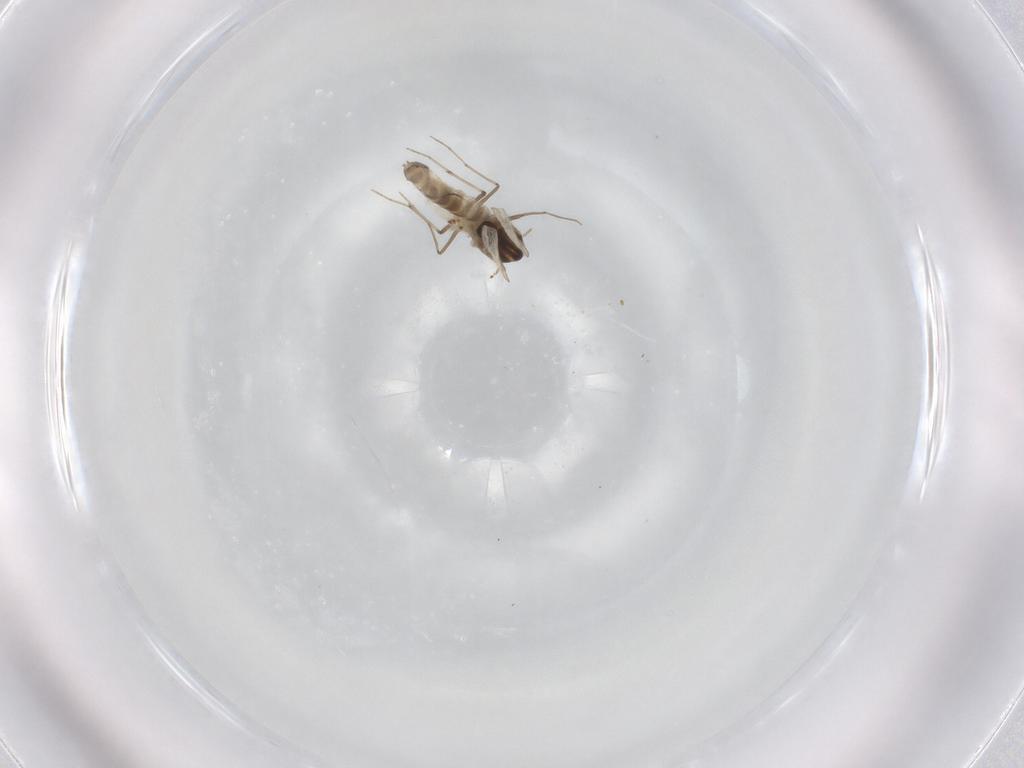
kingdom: Animalia
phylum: Arthropoda
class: Insecta
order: Diptera
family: Chironomidae
